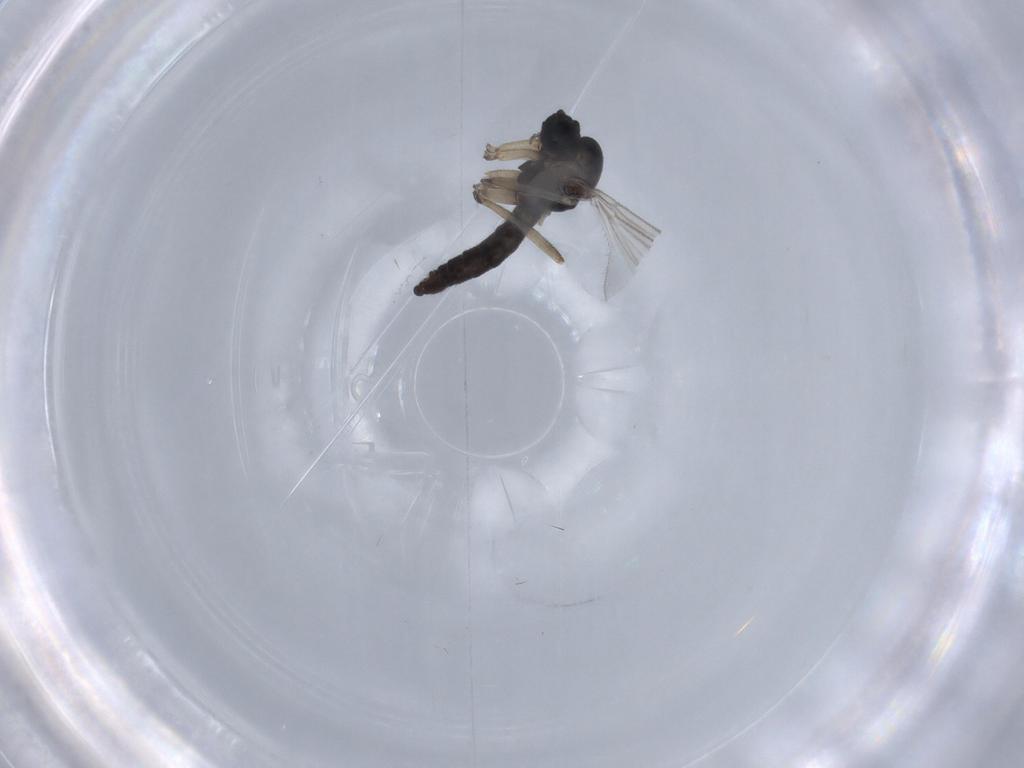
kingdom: Animalia
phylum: Arthropoda
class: Insecta
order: Diptera
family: Sciaridae
